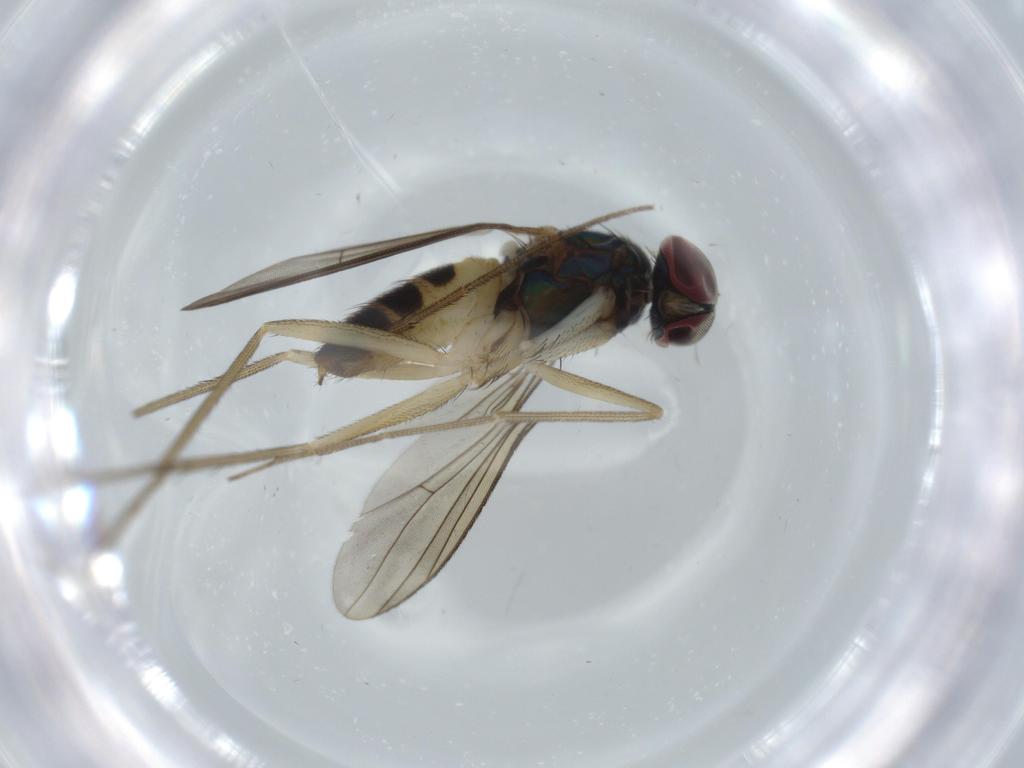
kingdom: Animalia
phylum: Arthropoda
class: Insecta
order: Diptera
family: Dolichopodidae
